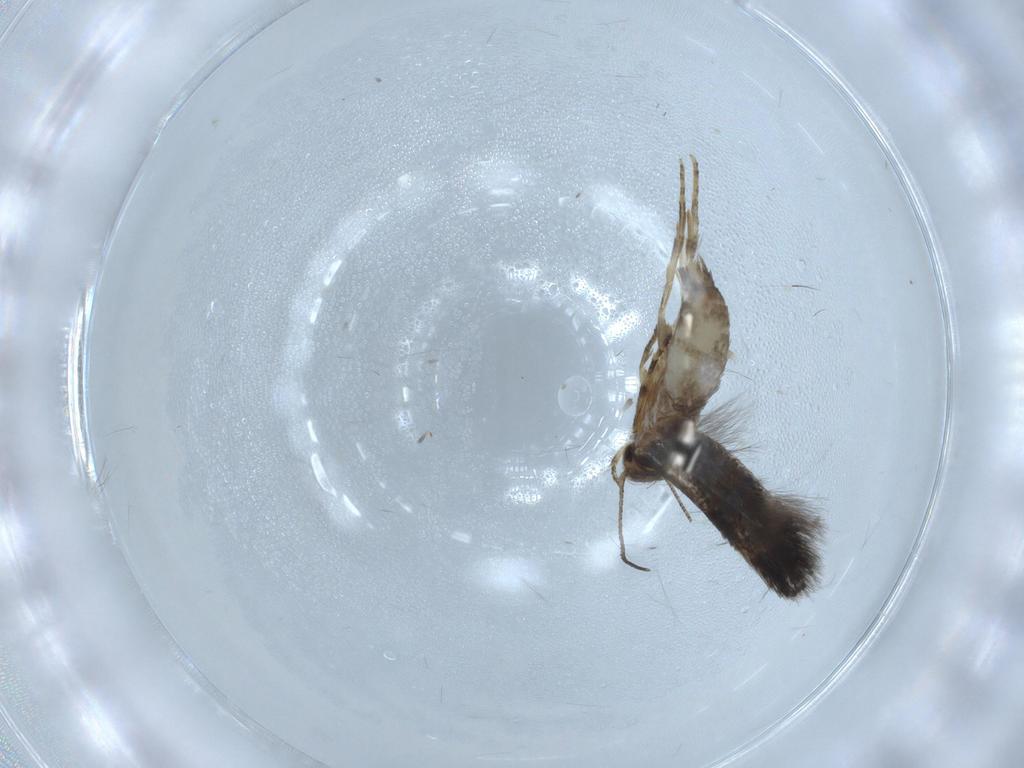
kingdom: Animalia
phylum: Arthropoda
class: Insecta
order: Lepidoptera
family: Gelechiidae
